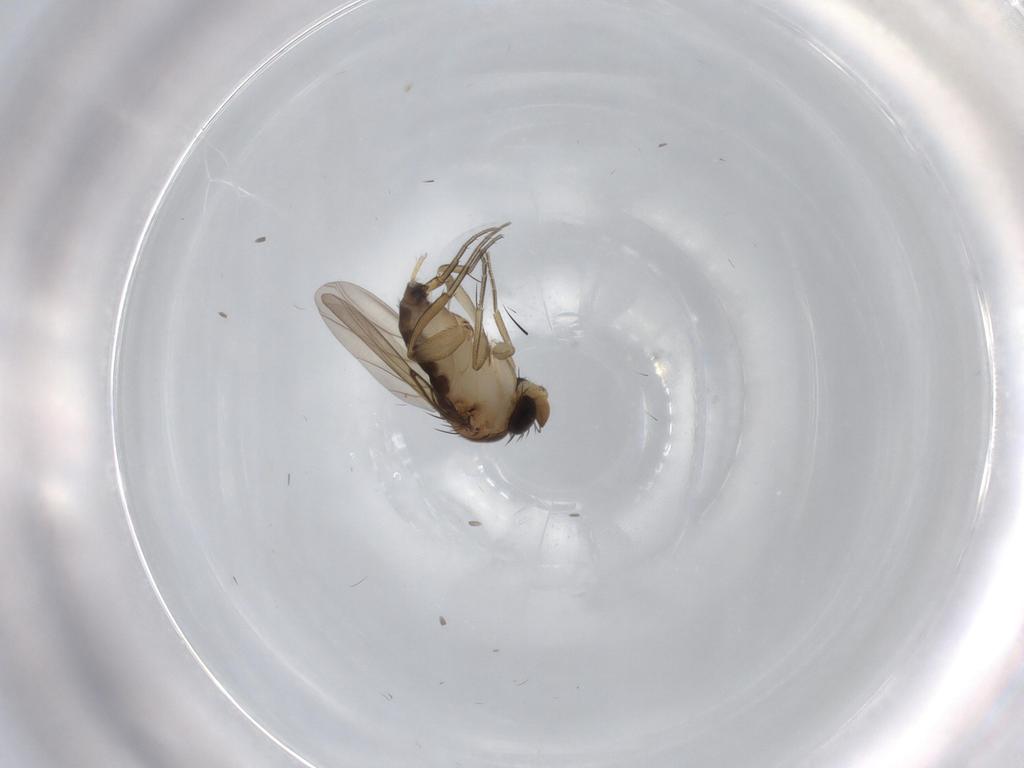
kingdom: Animalia
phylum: Arthropoda
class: Insecta
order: Diptera
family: Phoridae
